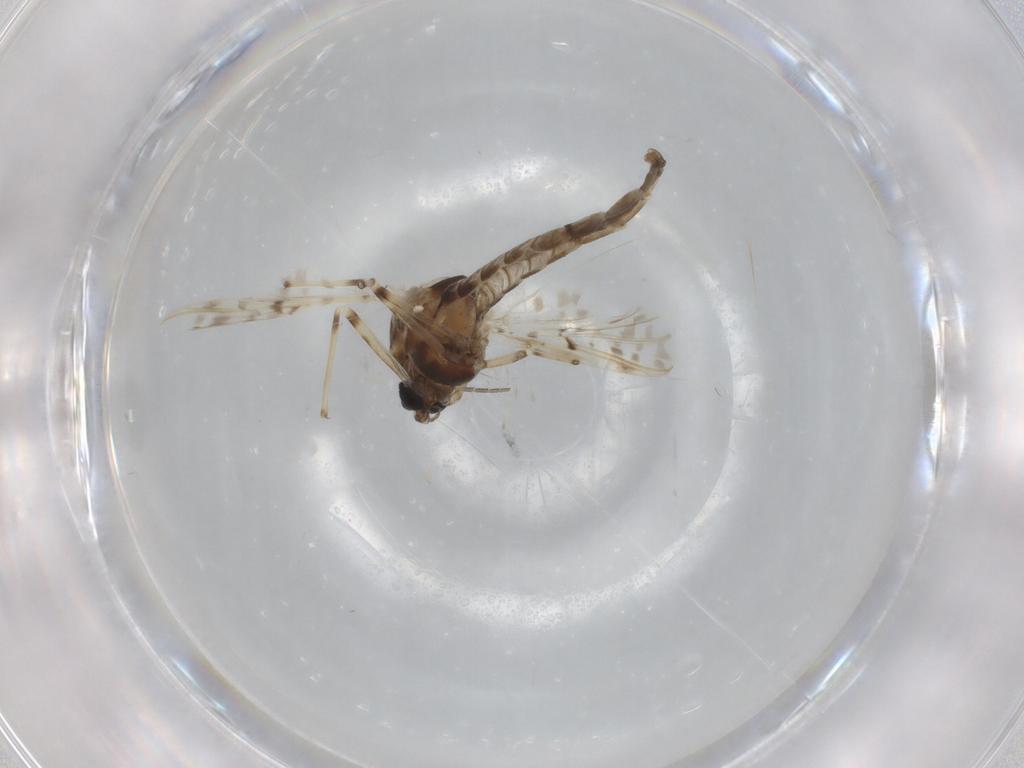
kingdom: Animalia
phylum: Arthropoda
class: Insecta
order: Diptera
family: Chironomidae
